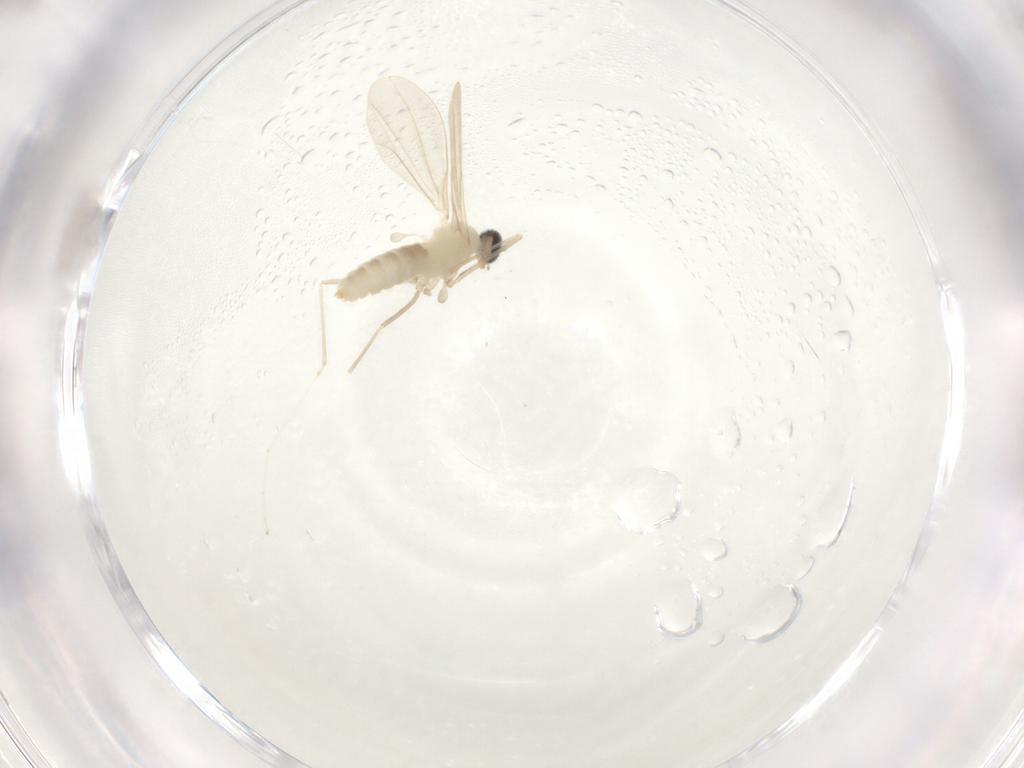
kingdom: Animalia
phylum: Arthropoda
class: Insecta
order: Diptera
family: Cecidomyiidae
